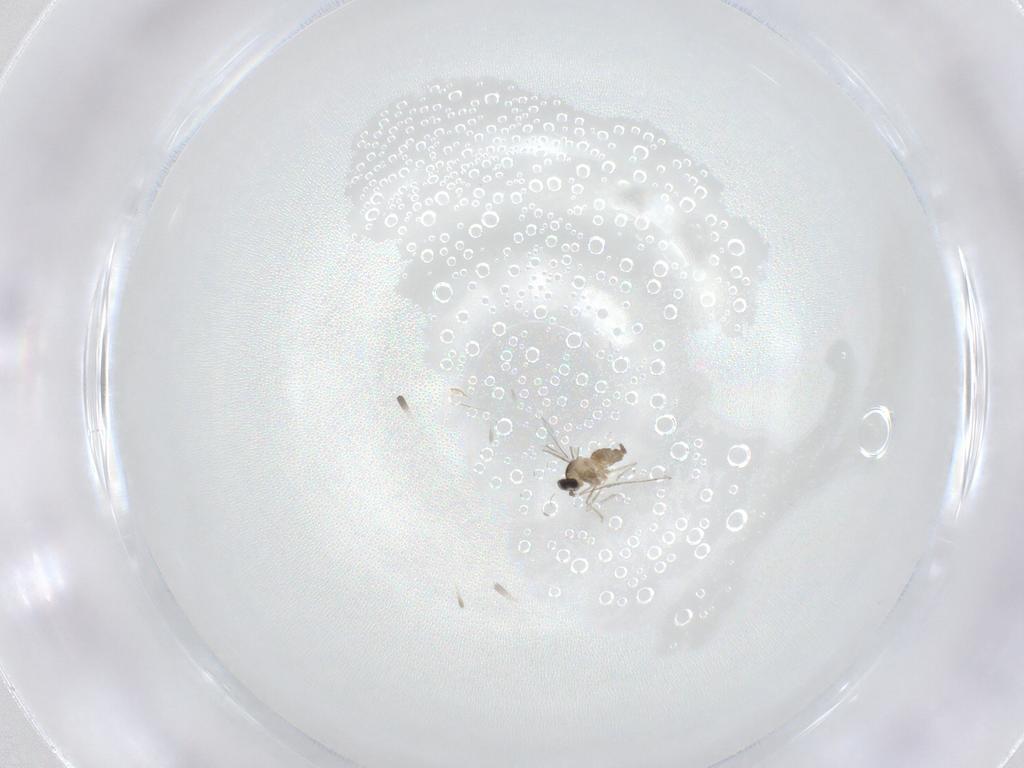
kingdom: Animalia
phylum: Arthropoda
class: Insecta
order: Diptera
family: Cecidomyiidae
